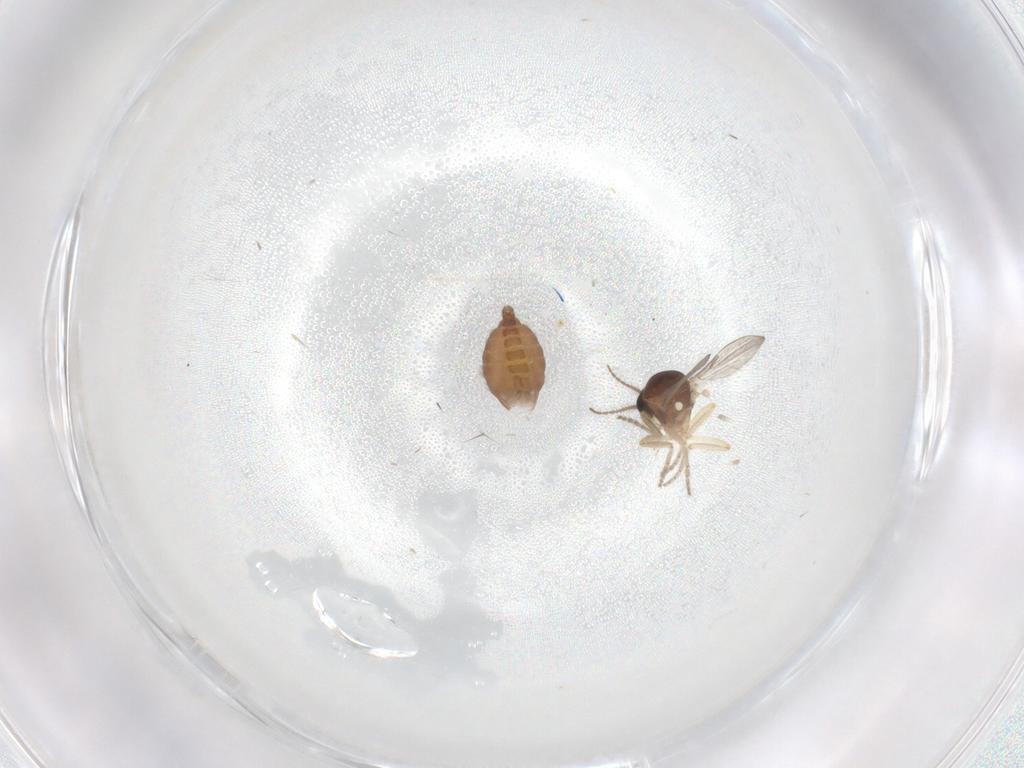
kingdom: Animalia
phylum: Arthropoda
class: Insecta
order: Diptera
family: Ceratopogonidae
